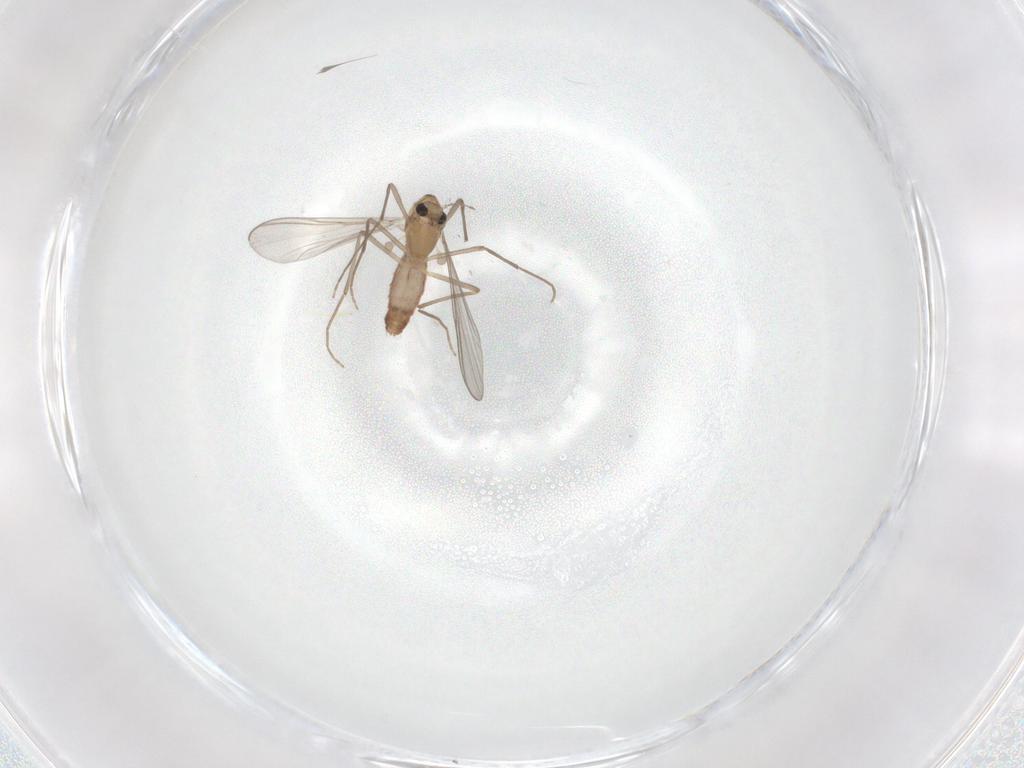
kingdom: Animalia
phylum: Arthropoda
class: Insecta
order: Diptera
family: Chironomidae
